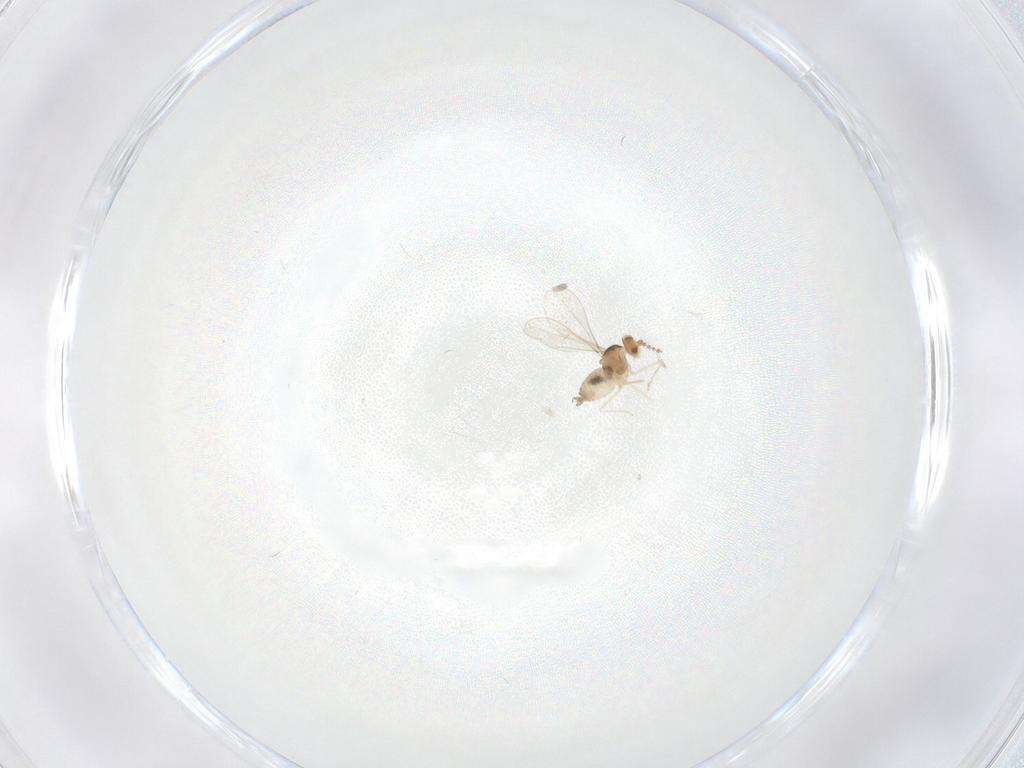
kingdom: Animalia
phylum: Arthropoda
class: Insecta
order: Diptera
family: Cecidomyiidae
